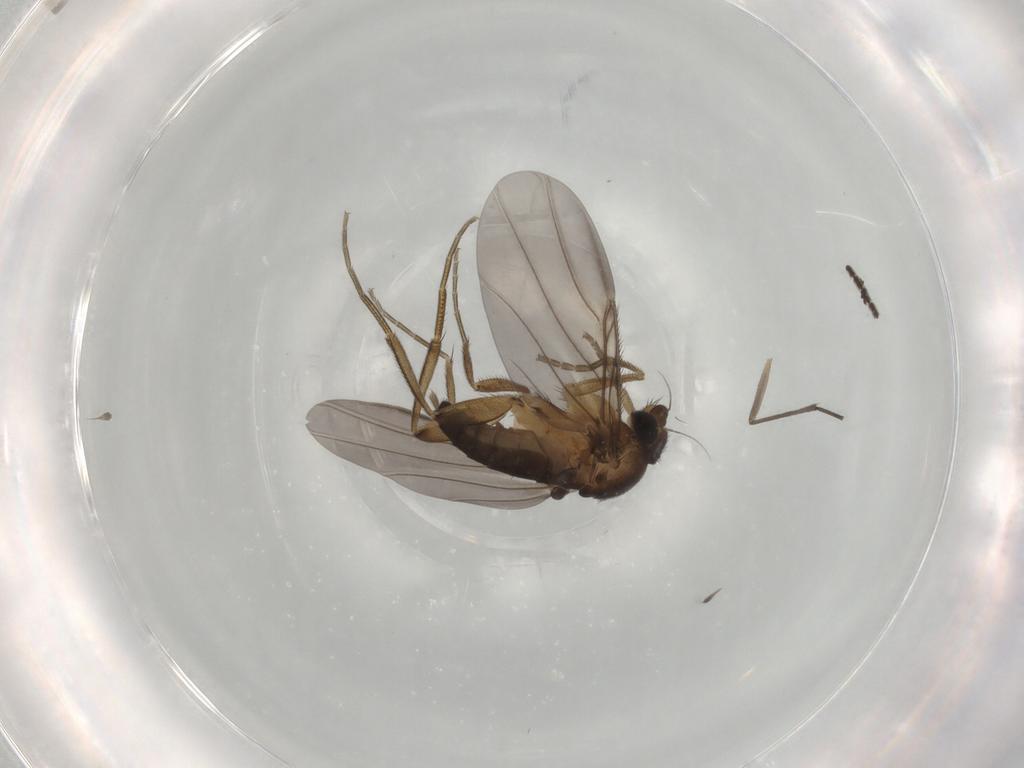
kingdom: Animalia
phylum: Arthropoda
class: Insecta
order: Diptera
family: Phoridae
